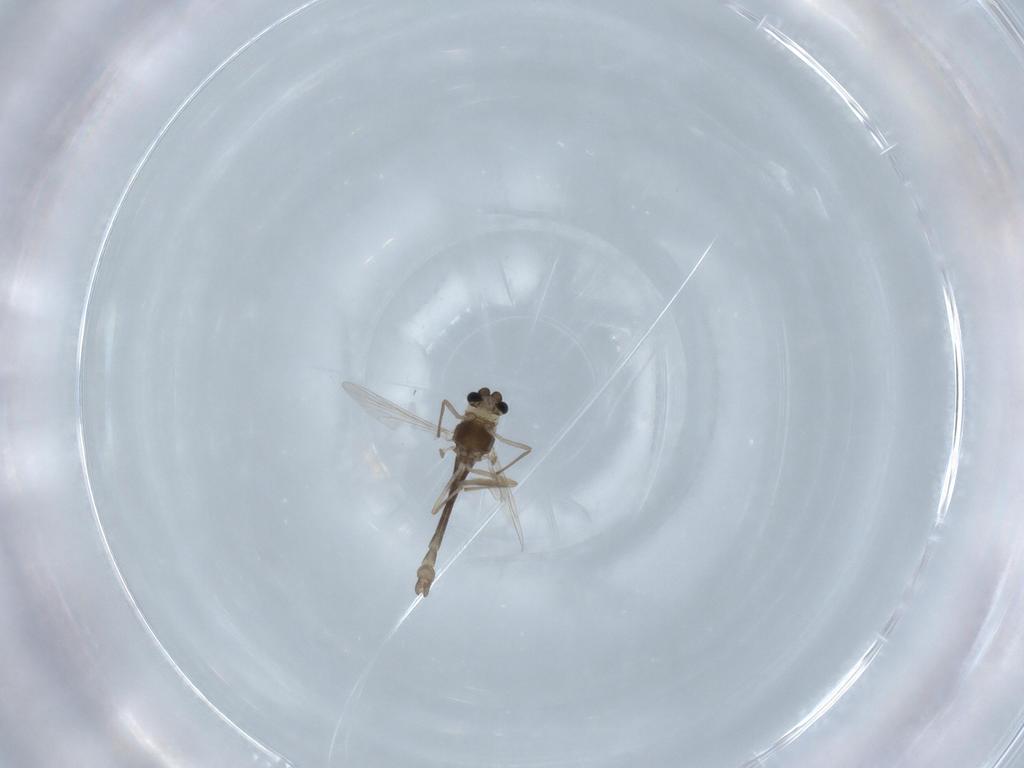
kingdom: Animalia
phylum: Arthropoda
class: Insecta
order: Diptera
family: Chironomidae
